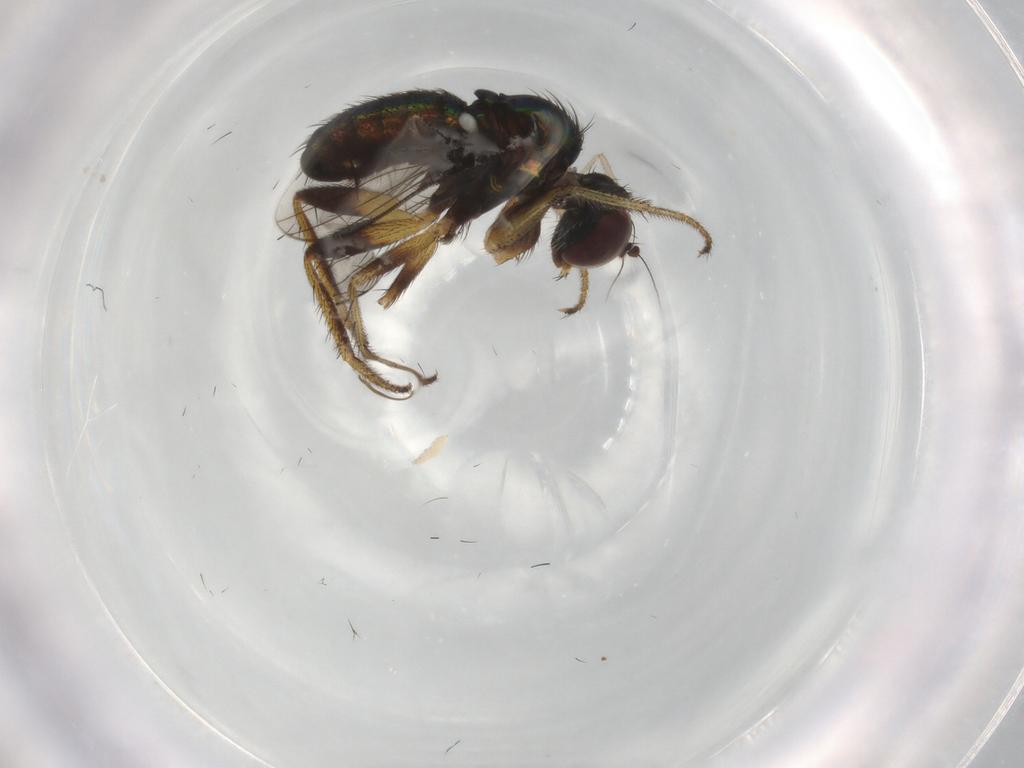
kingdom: Animalia
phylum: Arthropoda
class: Insecta
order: Diptera
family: Dolichopodidae
